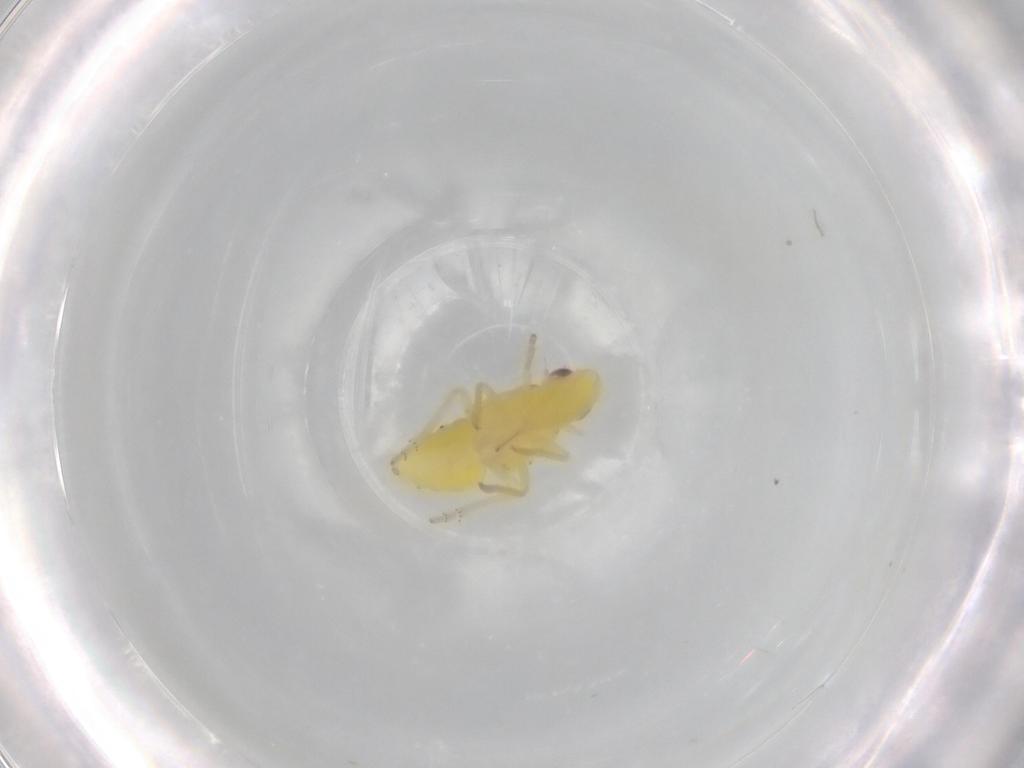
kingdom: Animalia
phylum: Arthropoda
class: Insecta
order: Hemiptera
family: Tropiduchidae
